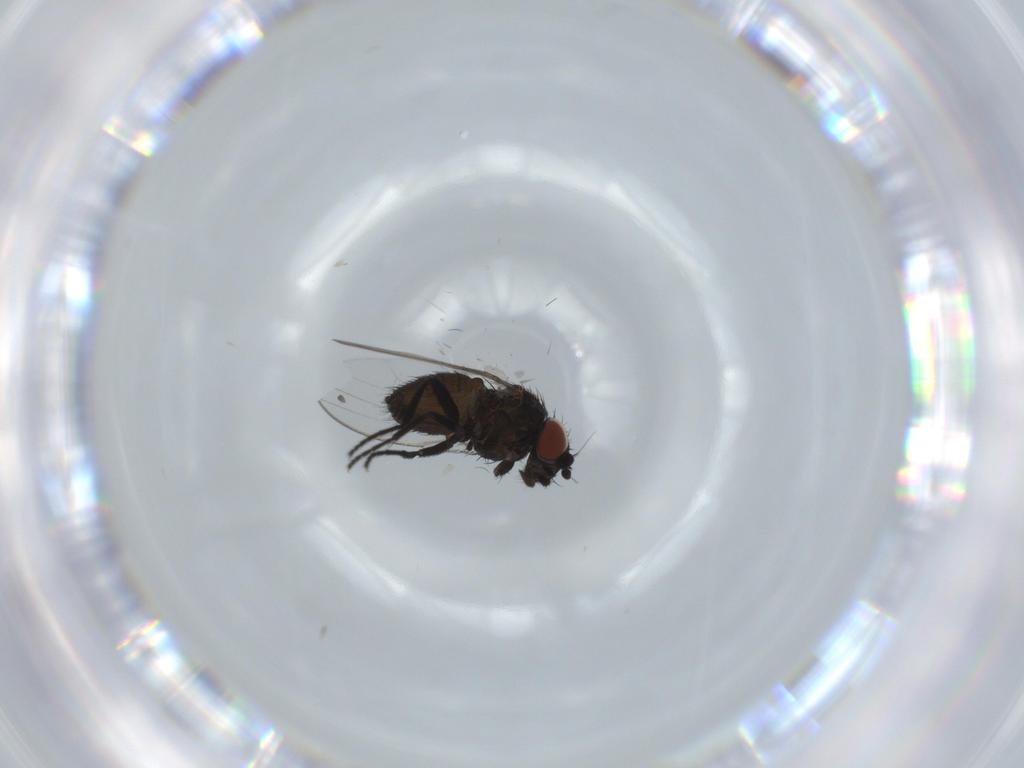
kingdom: Animalia
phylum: Arthropoda
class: Insecta
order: Diptera
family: Milichiidae
